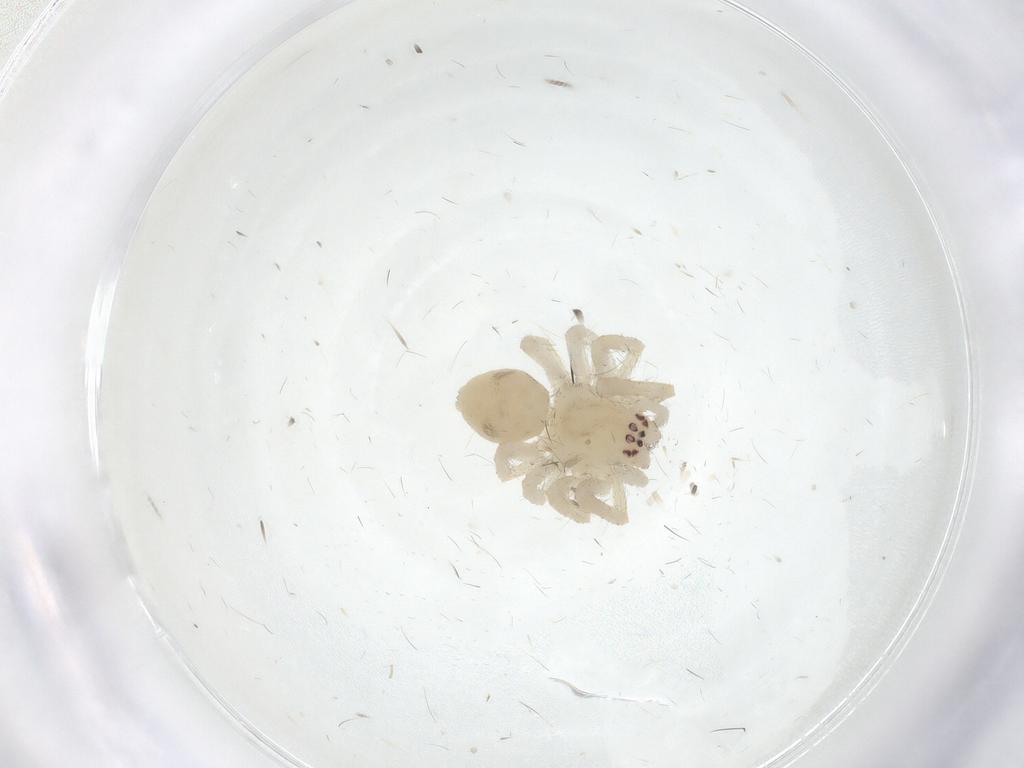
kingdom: Animalia
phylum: Arthropoda
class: Arachnida
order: Araneae
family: Dictynidae
